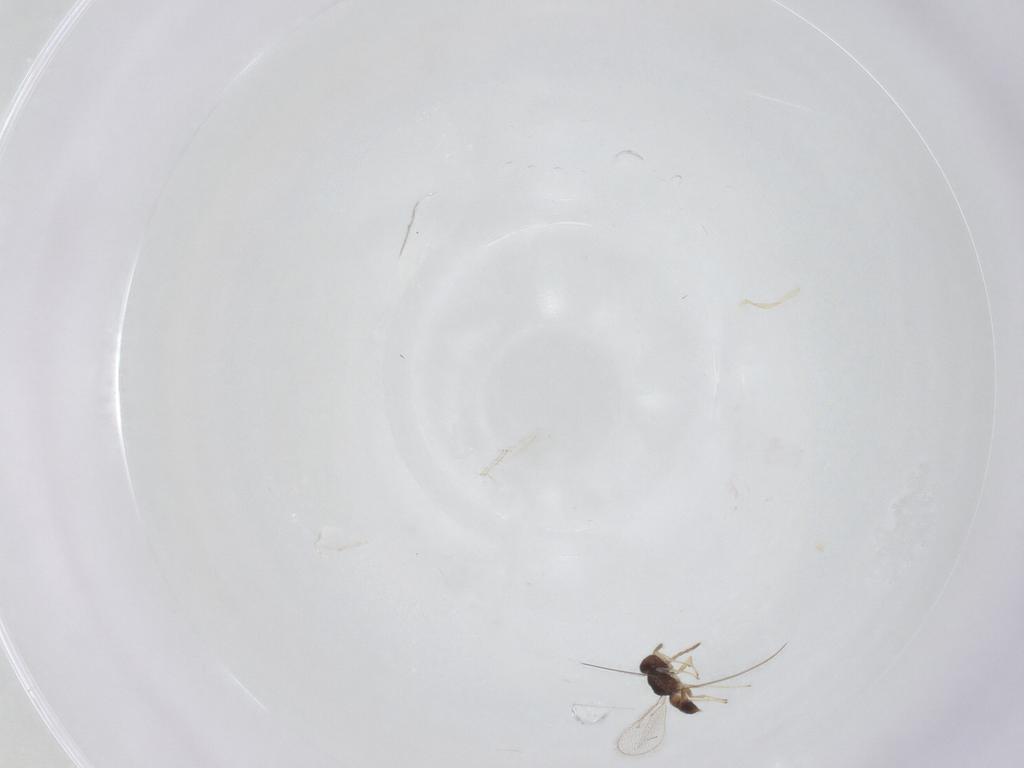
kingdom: Animalia
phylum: Arthropoda
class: Insecta
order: Hymenoptera
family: Eulophidae
